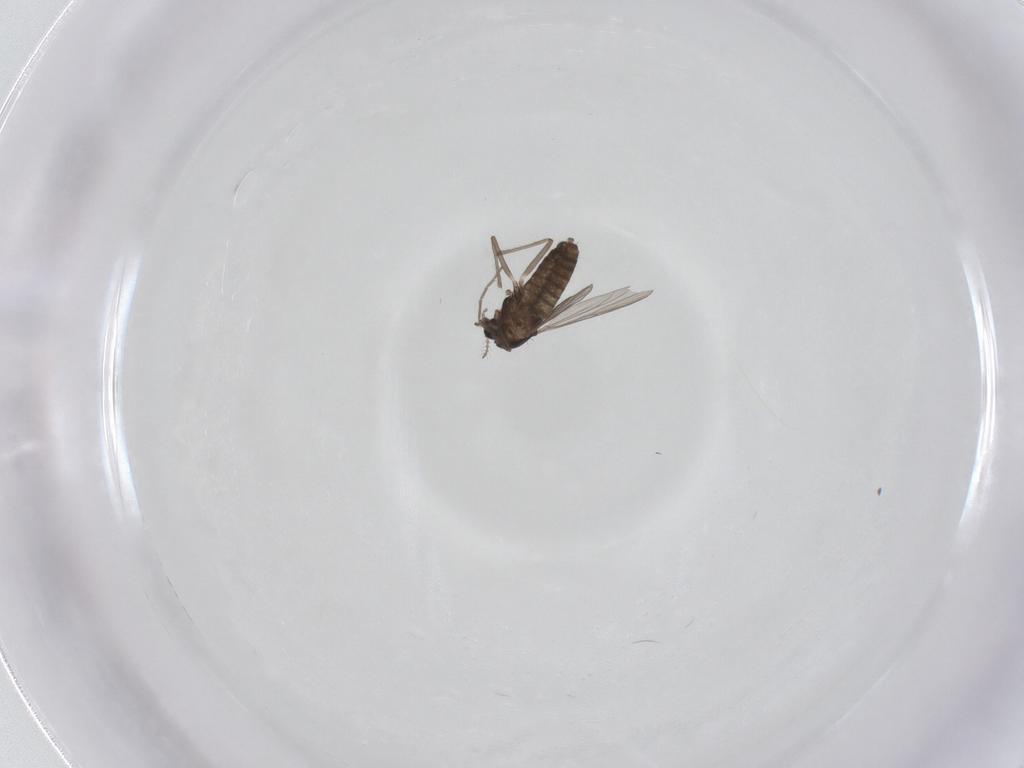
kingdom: Animalia
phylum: Arthropoda
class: Insecta
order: Diptera
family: Chironomidae
